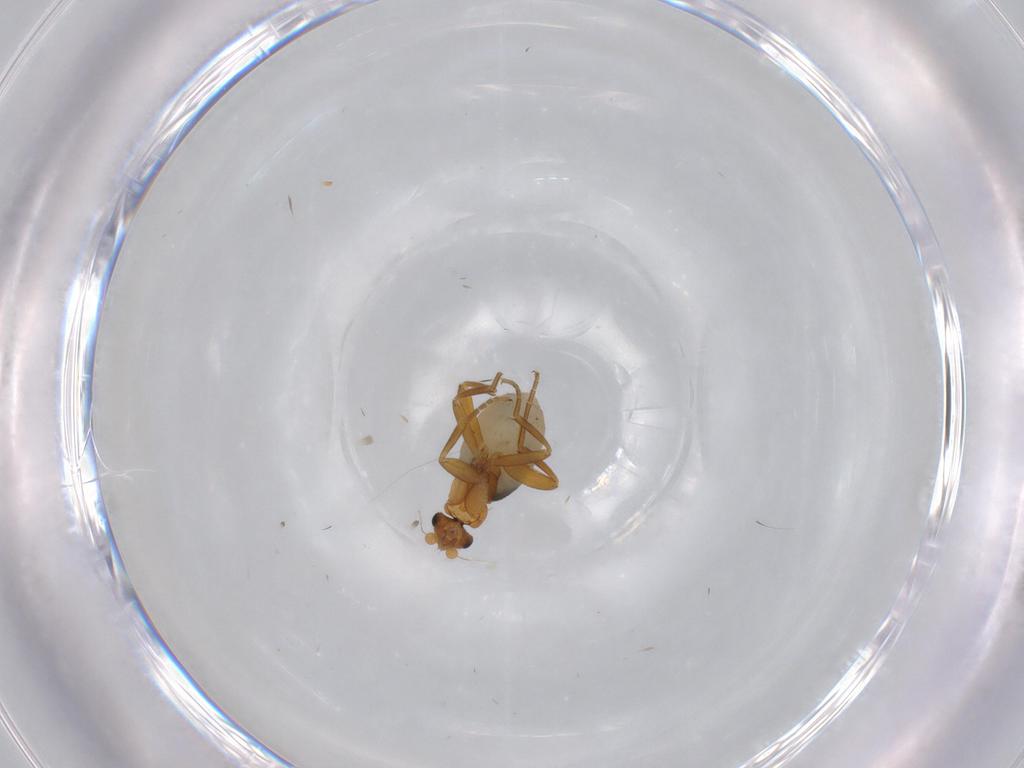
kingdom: Animalia
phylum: Arthropoda
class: Insecta
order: Diptera
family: Phoridae
